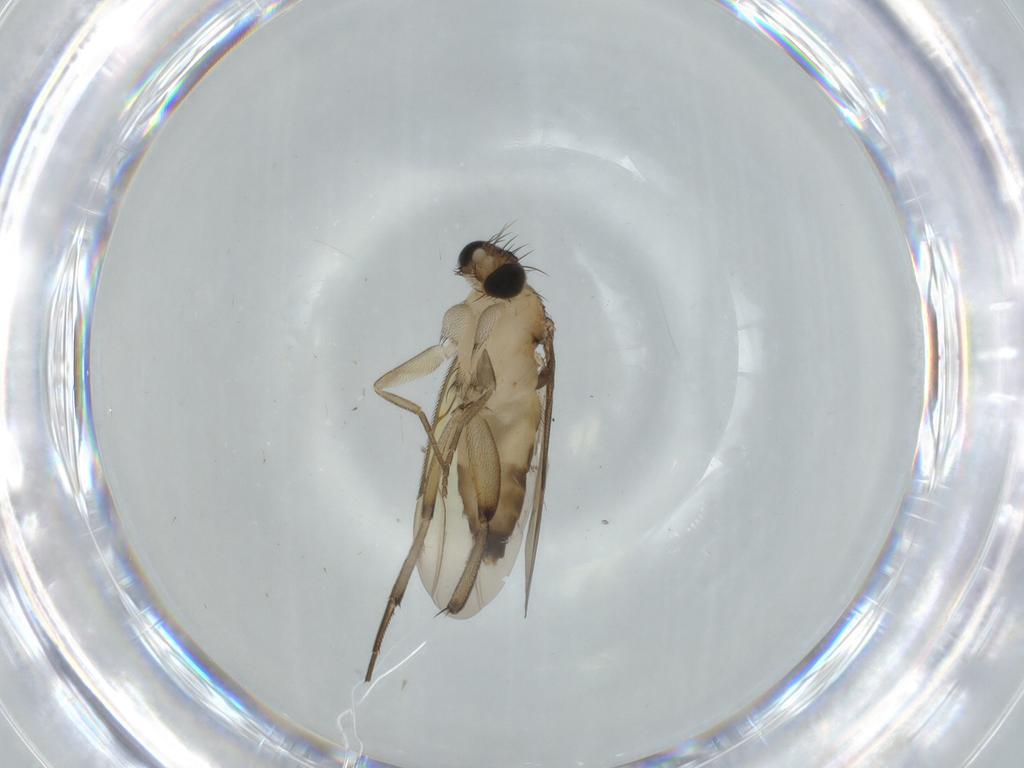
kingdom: Animalia
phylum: Arthropoda
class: Insecta
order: Diptera
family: Phoridae
